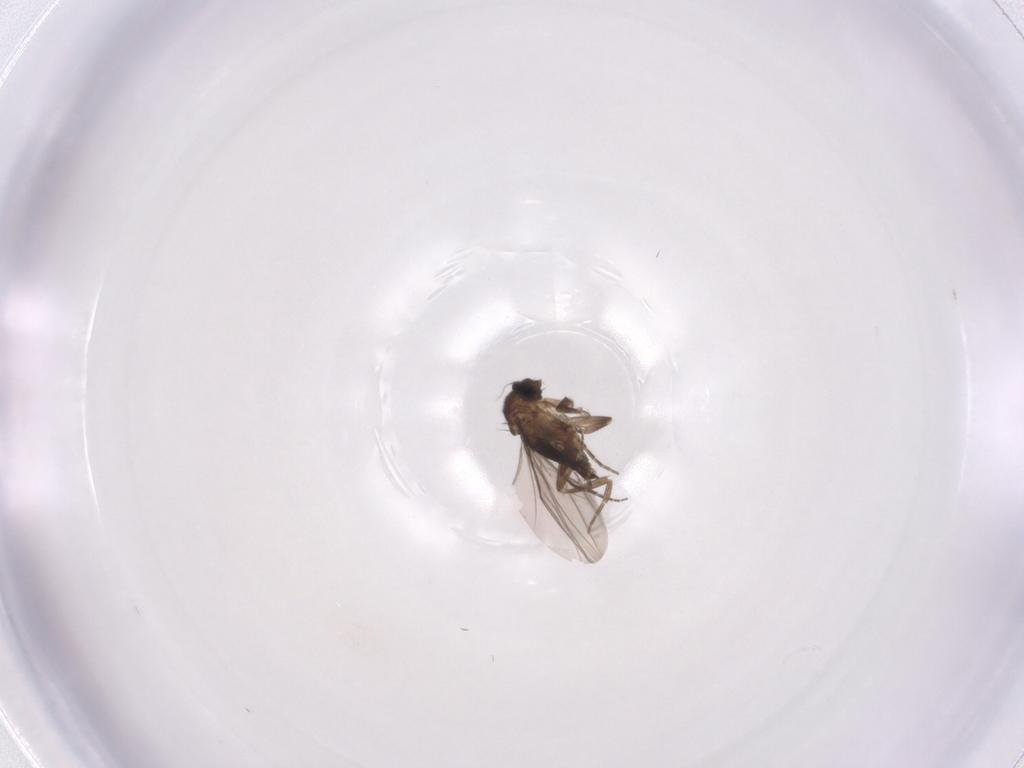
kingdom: Animalia
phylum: Arthropoda
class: Insecta
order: Diptera
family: Phoridae
